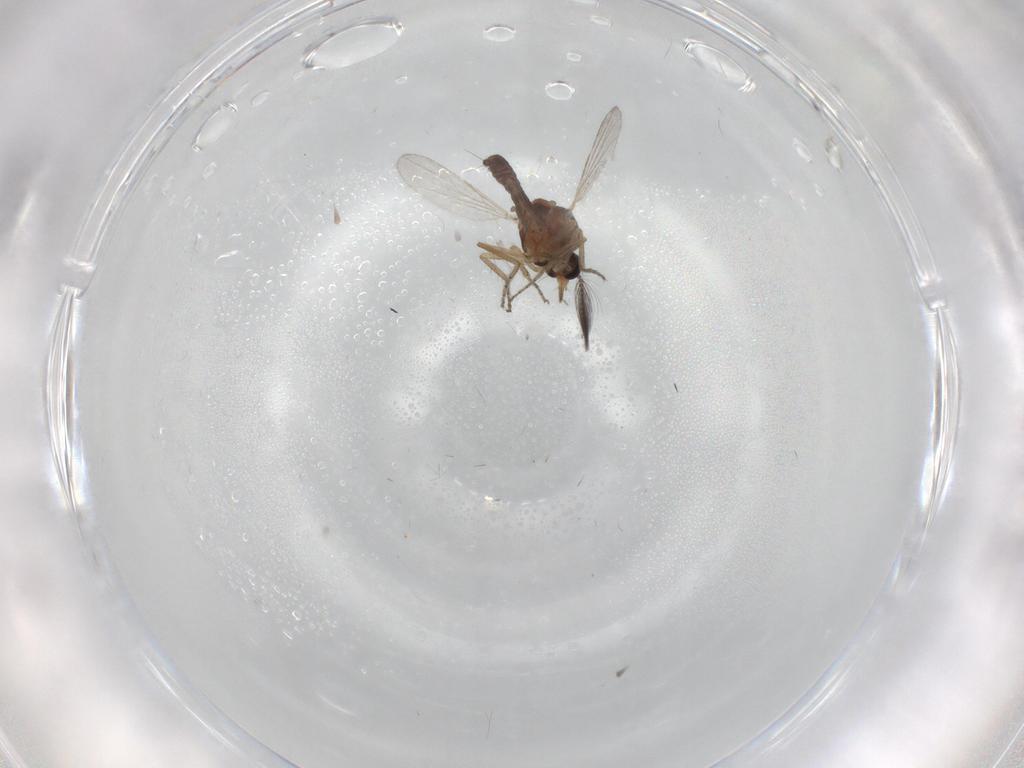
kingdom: Animalia
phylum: Arthropoda
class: Insecta
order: Diptera
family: Ceratopogonidae
